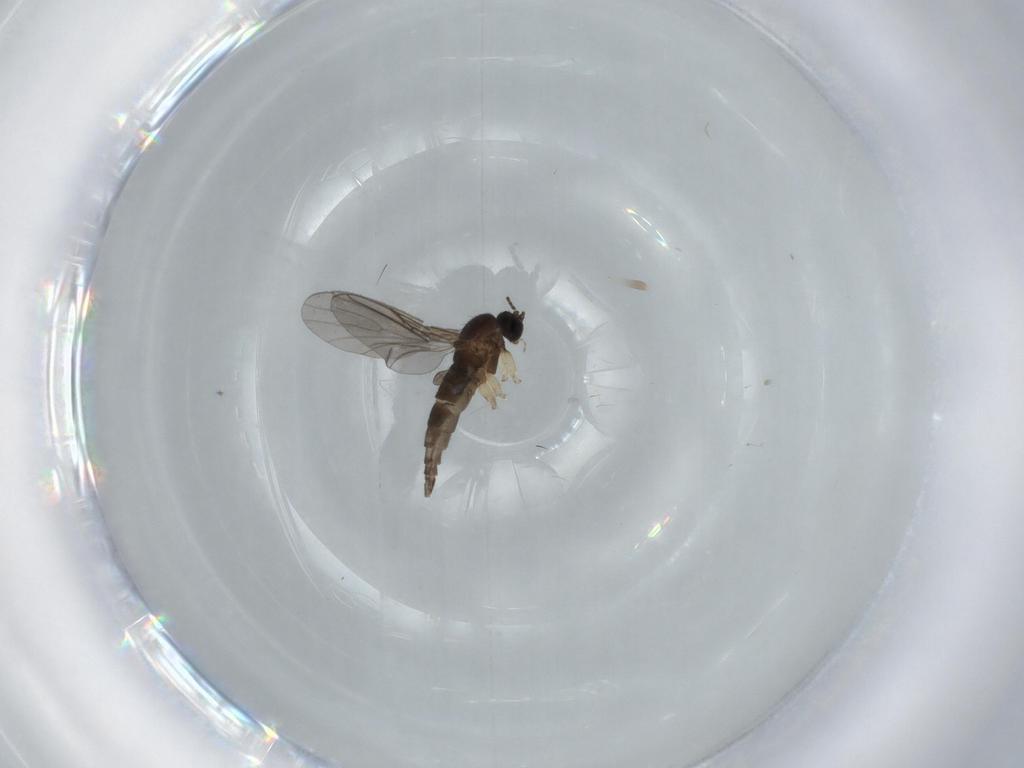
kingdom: Animalia
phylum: Arthropoda
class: Insecta
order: Diptera
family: Sciaridae
